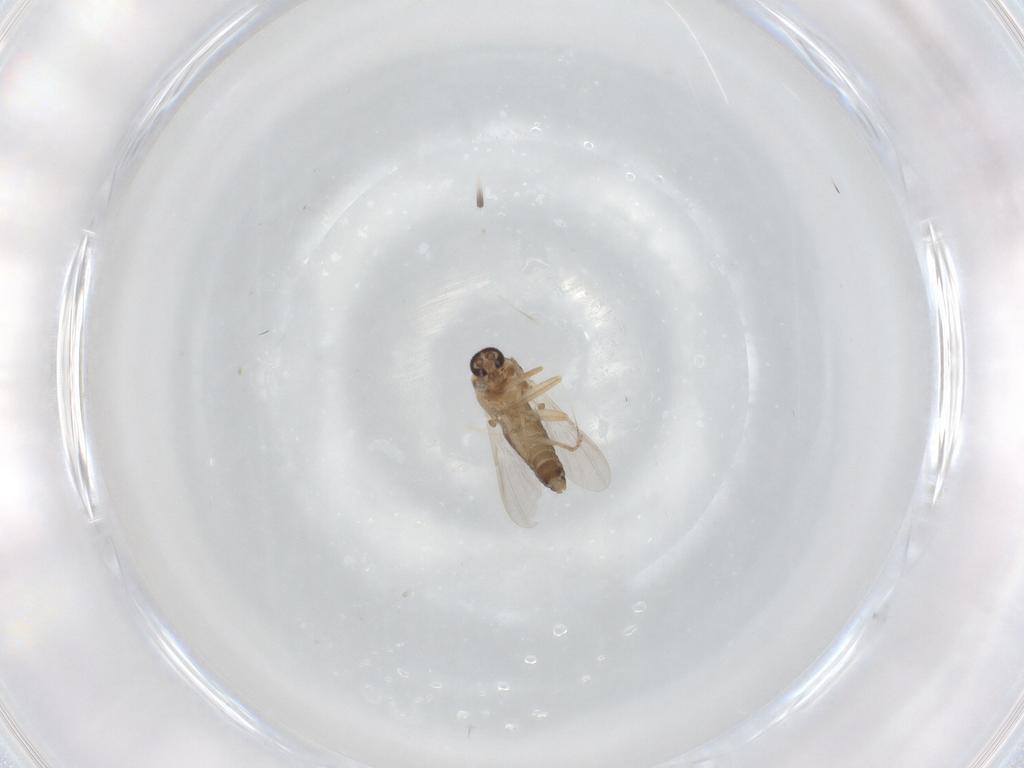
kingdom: Animalia
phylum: Arthropoda
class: Insecta
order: Diptera
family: Ceratopogonidae
